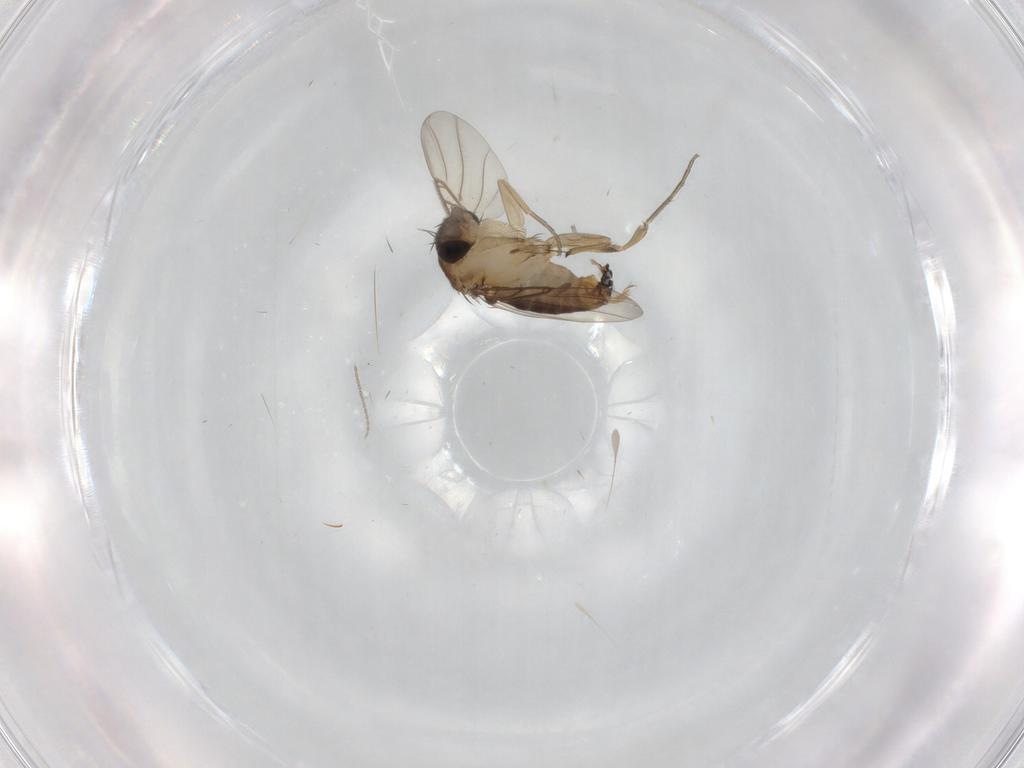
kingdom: Animalia
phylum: Arthropoda
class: Insecta
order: Diptera
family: Phoridae
